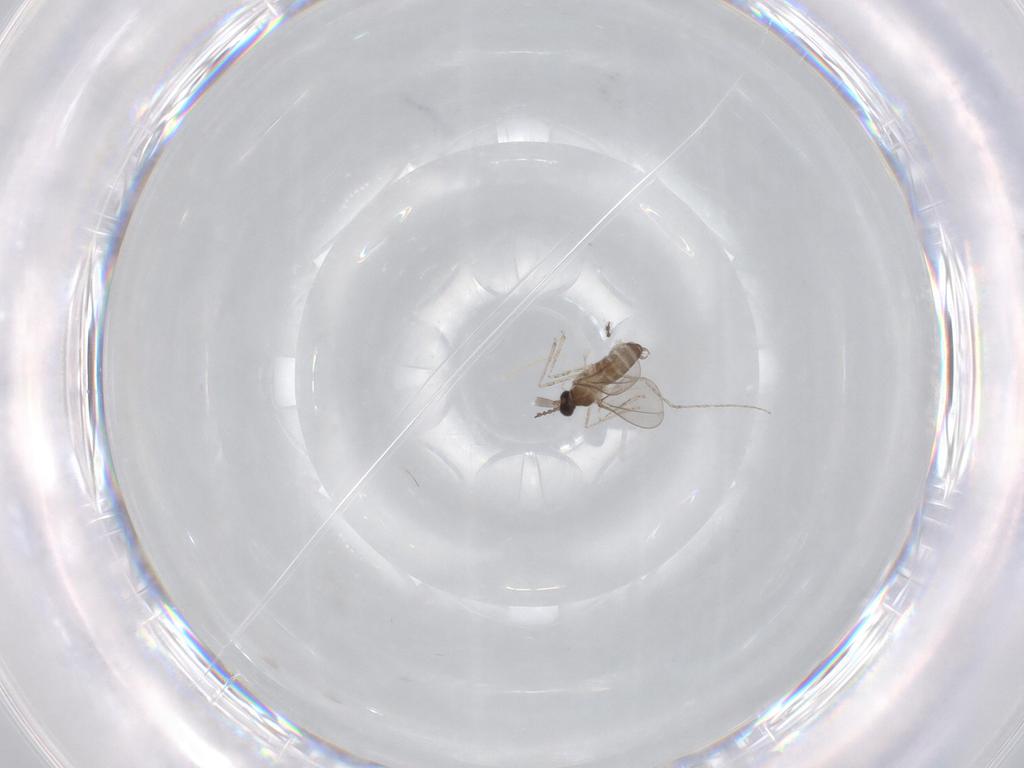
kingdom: Animalia
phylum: Arthropoda
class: Insecta
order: Diptera
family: Cecidomyiidae
